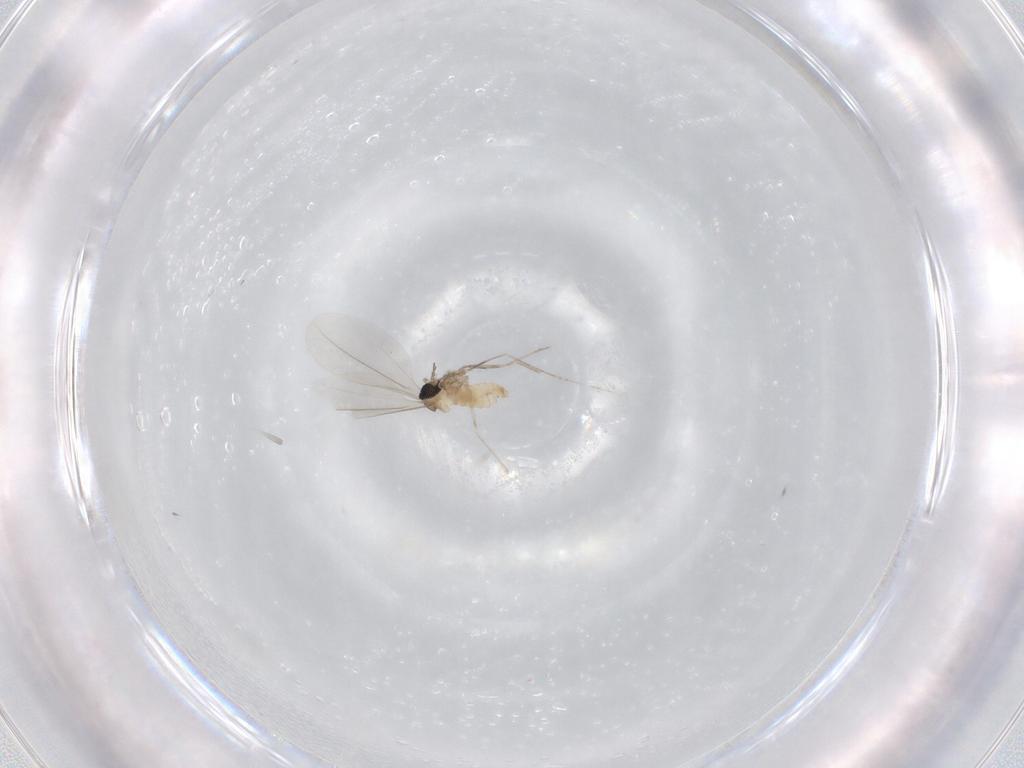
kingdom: Animalia
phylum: Arthropoda
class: Insecta
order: Diptera
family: Cecidomyiidae
